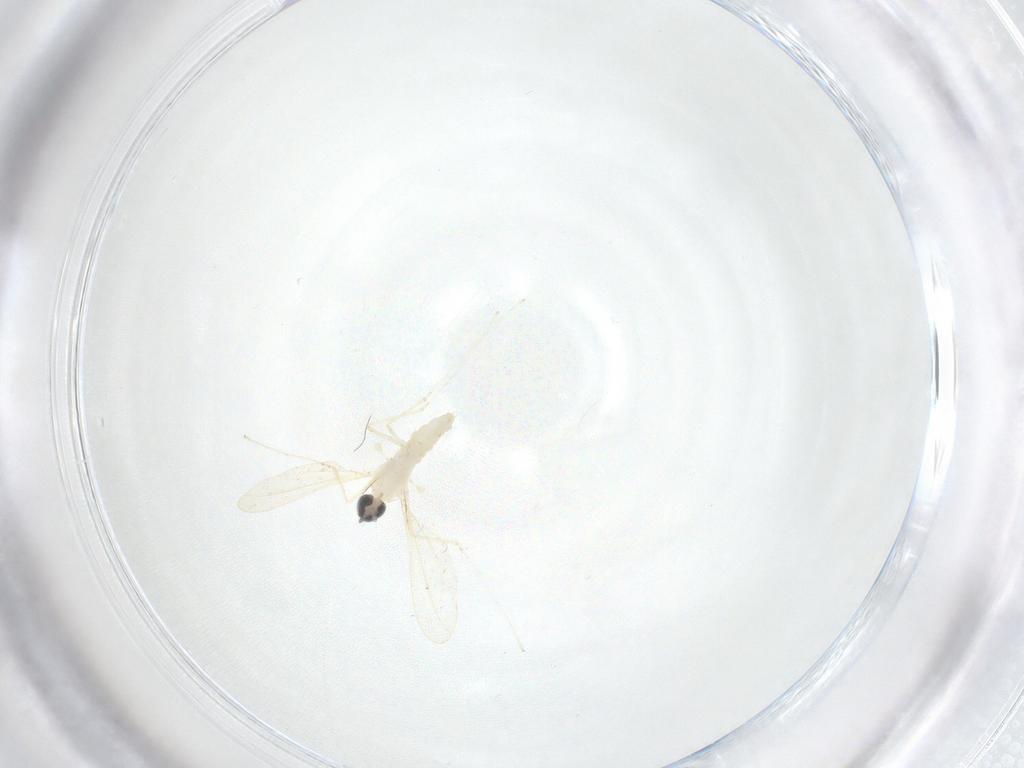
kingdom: Animalia
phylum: Arthropoda
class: Insecta
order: Diptera
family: Cecidomyiidae
